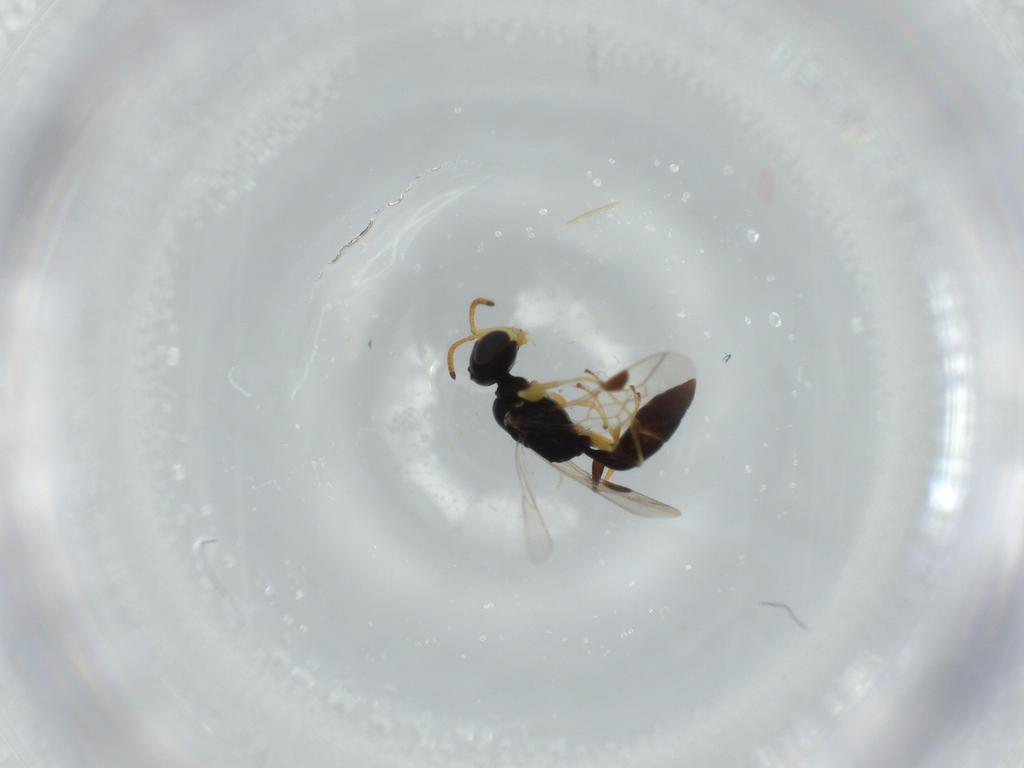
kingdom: Animalia
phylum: Arthropoda
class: Insecta
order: Hymenoptera
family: Pemphredonidae
